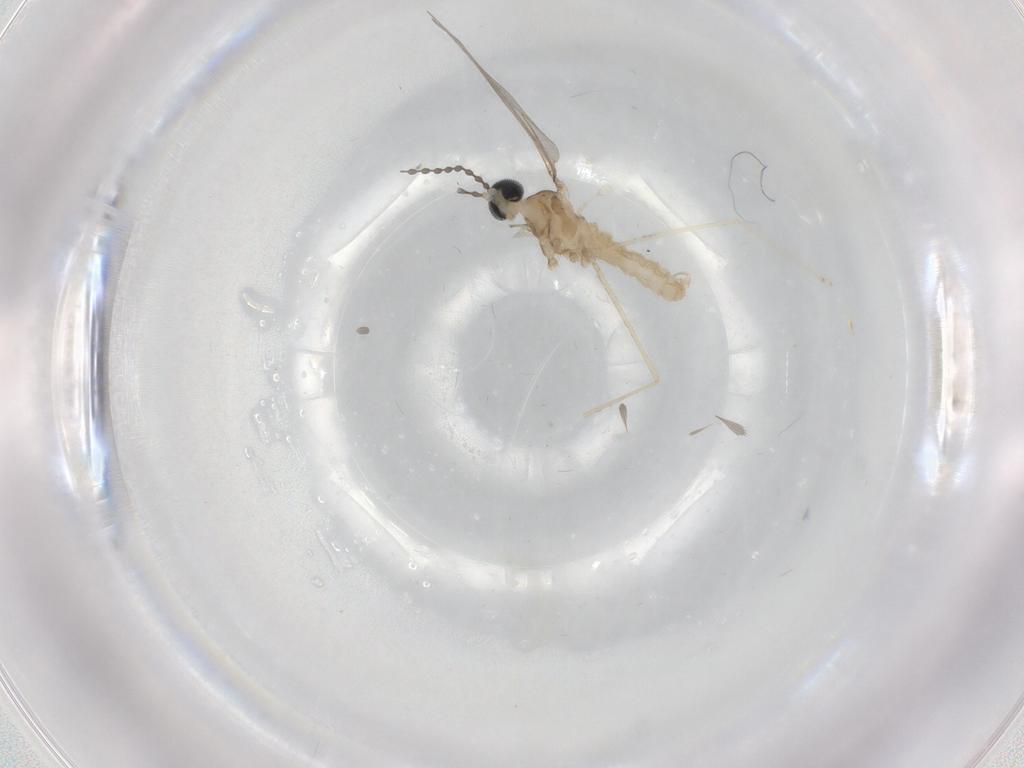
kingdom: Animalia
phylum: Arthropoda
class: Insecta
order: Diptera
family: Cecidomyiidae
